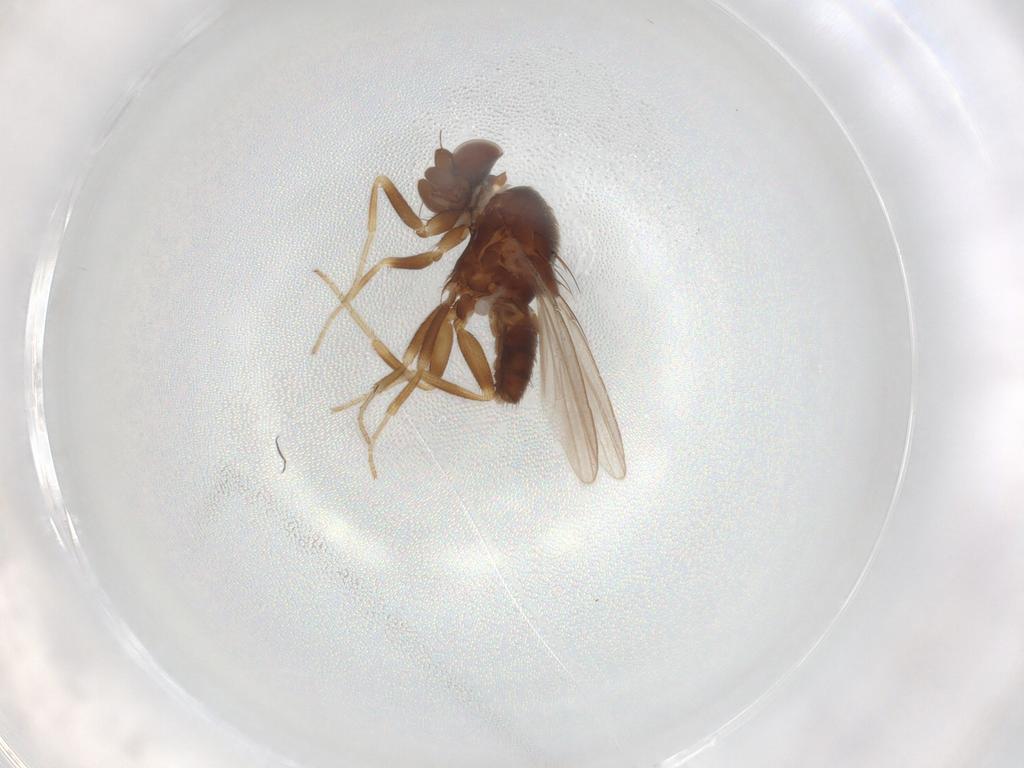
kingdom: Animalia
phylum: Arthropoda
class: Insecta
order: Diptera
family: Milichiidae
